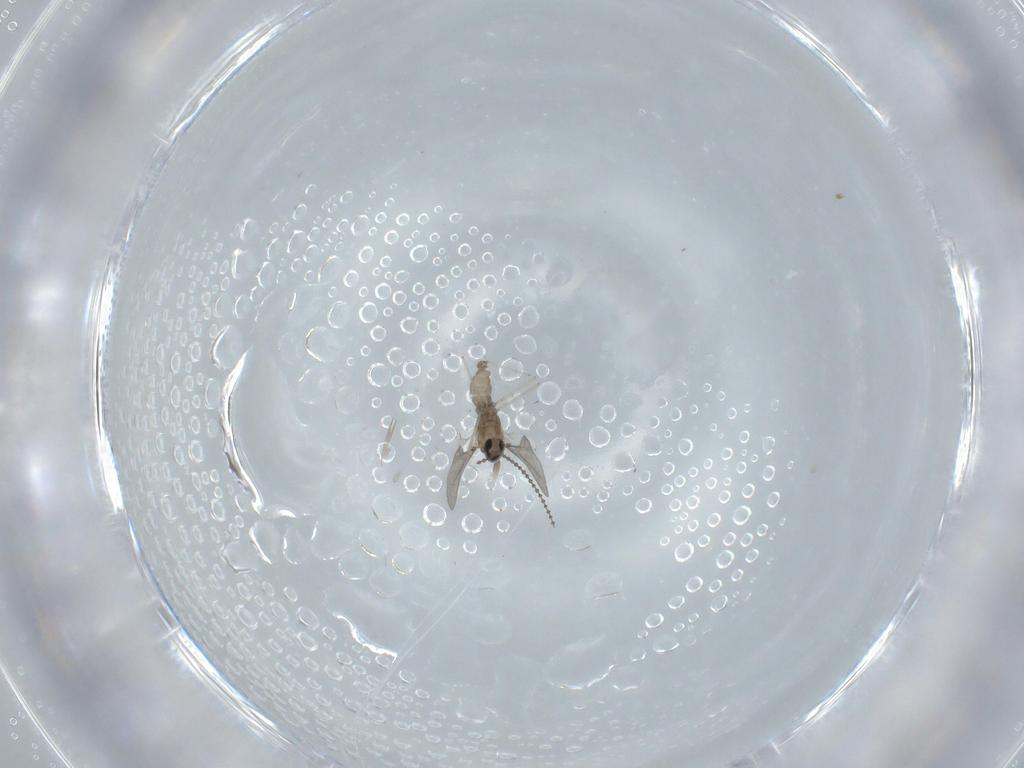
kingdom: Animalia
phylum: Arthropoda
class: Insecta
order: Diptera
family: Cecidomyiidae
